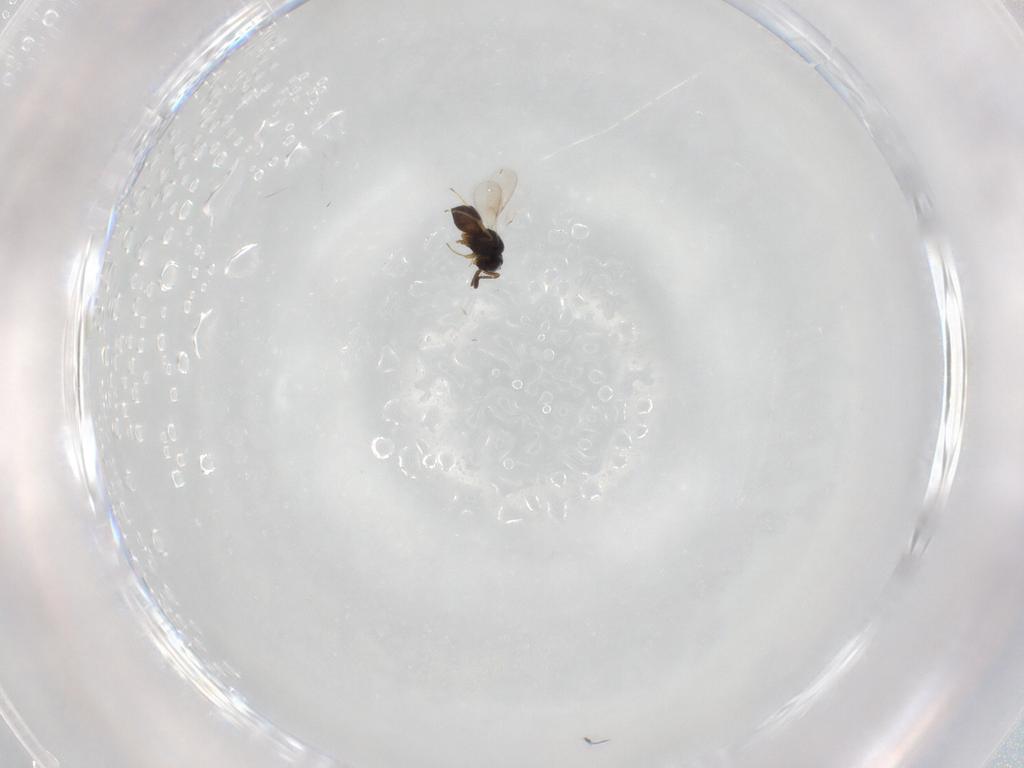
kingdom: Animalia
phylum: Arthropoda
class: Insecta
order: Hymenoptera
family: Scelionidae
